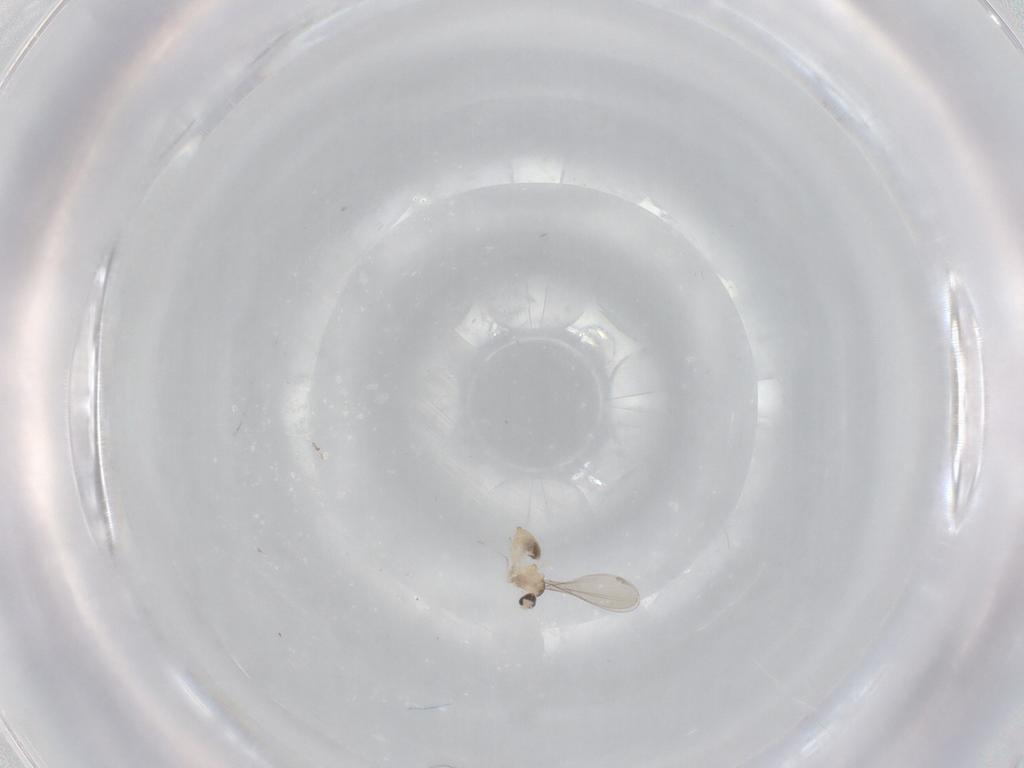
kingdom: Animalia
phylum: Arthropoda
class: Insecta
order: Diptera
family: Cecidomyiidae
